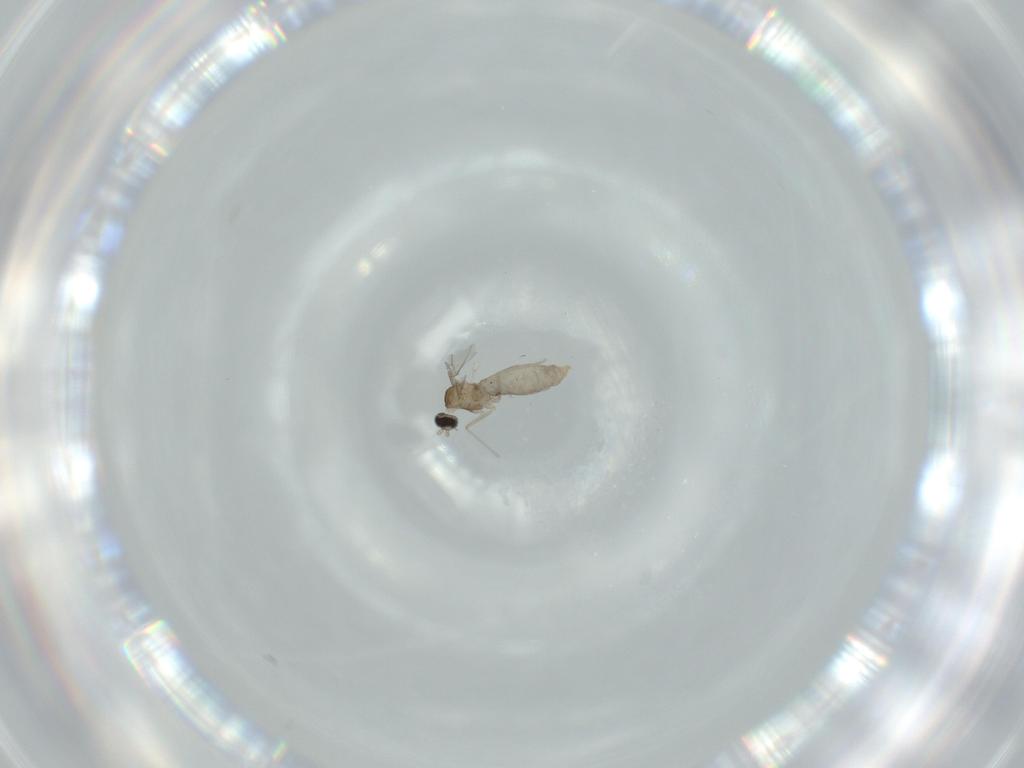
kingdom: Animalia
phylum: Arthropoda
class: Insecta
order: Diptera
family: Cecidomyiidae
